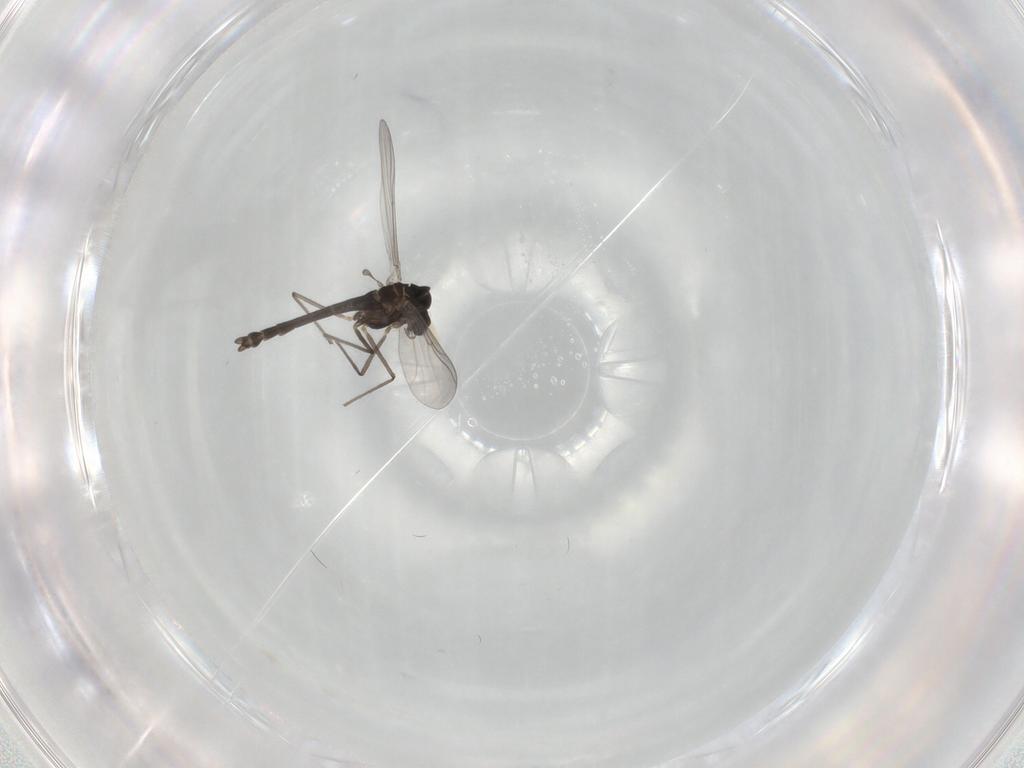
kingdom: Animalia
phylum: Arthropoda
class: Insecta
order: Diptera
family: Chironomidae
